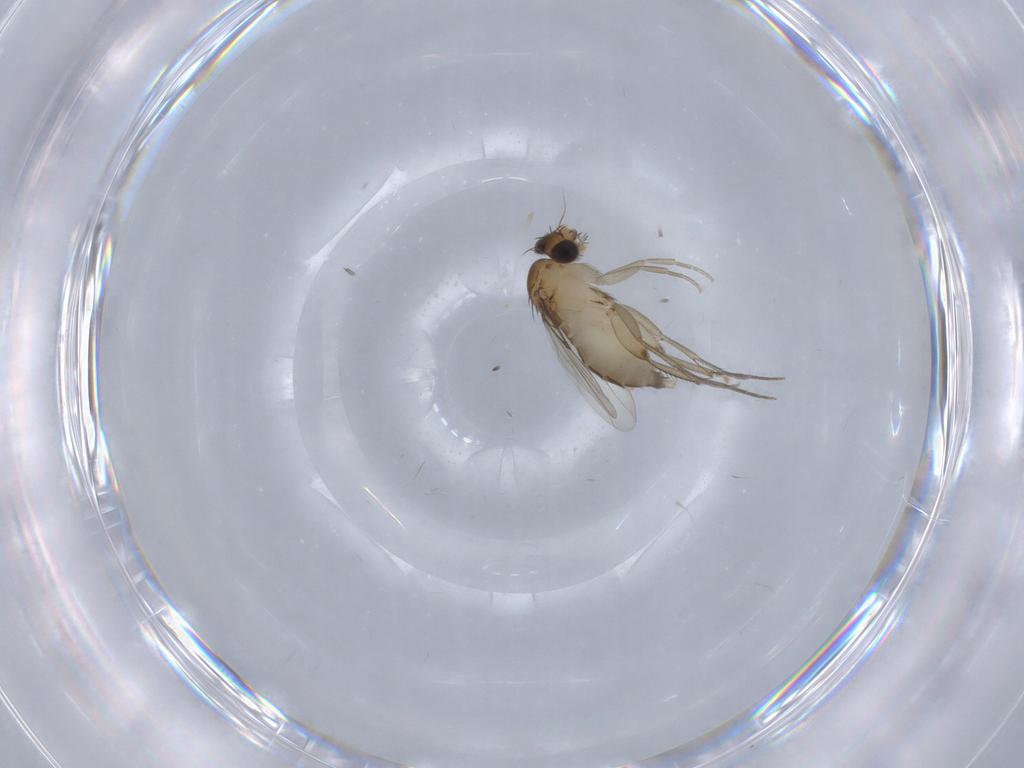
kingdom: Animalia
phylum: Arthropoda
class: Insecta
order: Diptera
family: Phoridae
